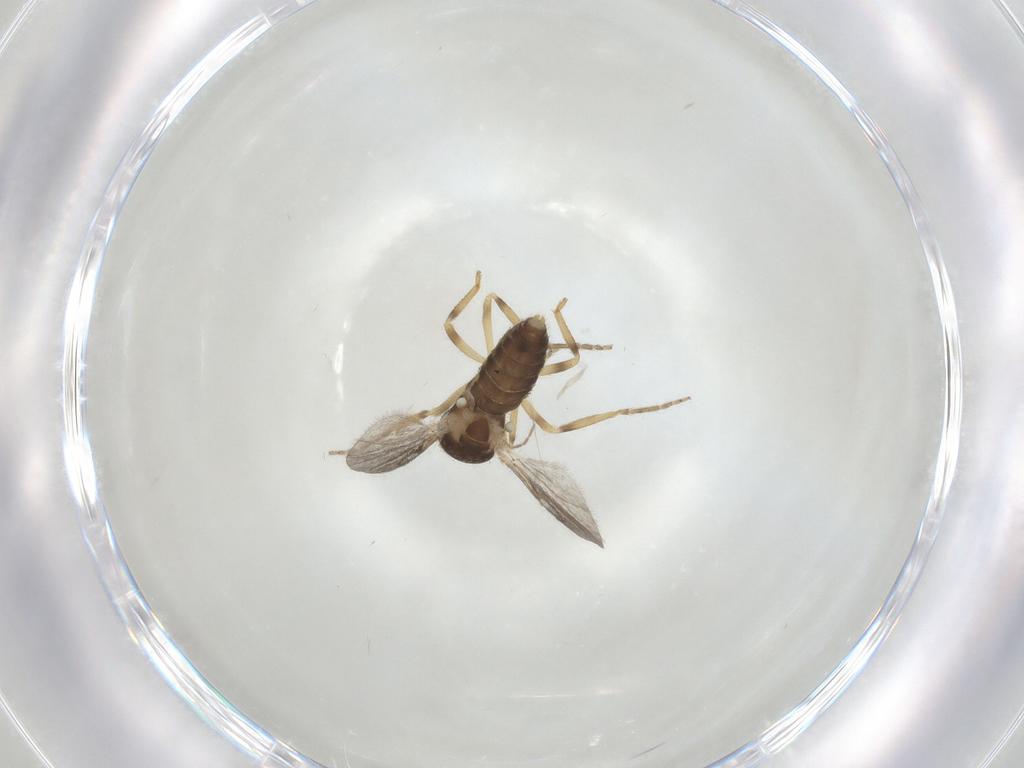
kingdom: Animalia
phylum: Arthropoda
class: Insecta
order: Diptera
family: Ceratopogonidae
